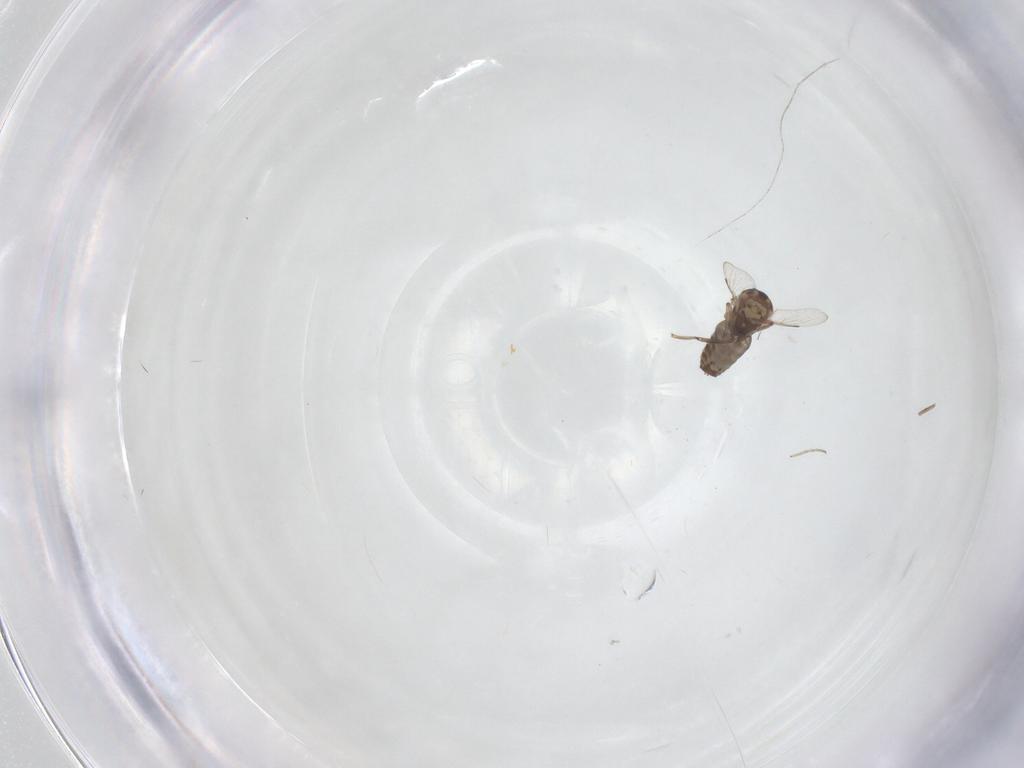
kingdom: Animalia
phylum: Arthropoda
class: Insecta
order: Diptera
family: Ceratopogonidae
